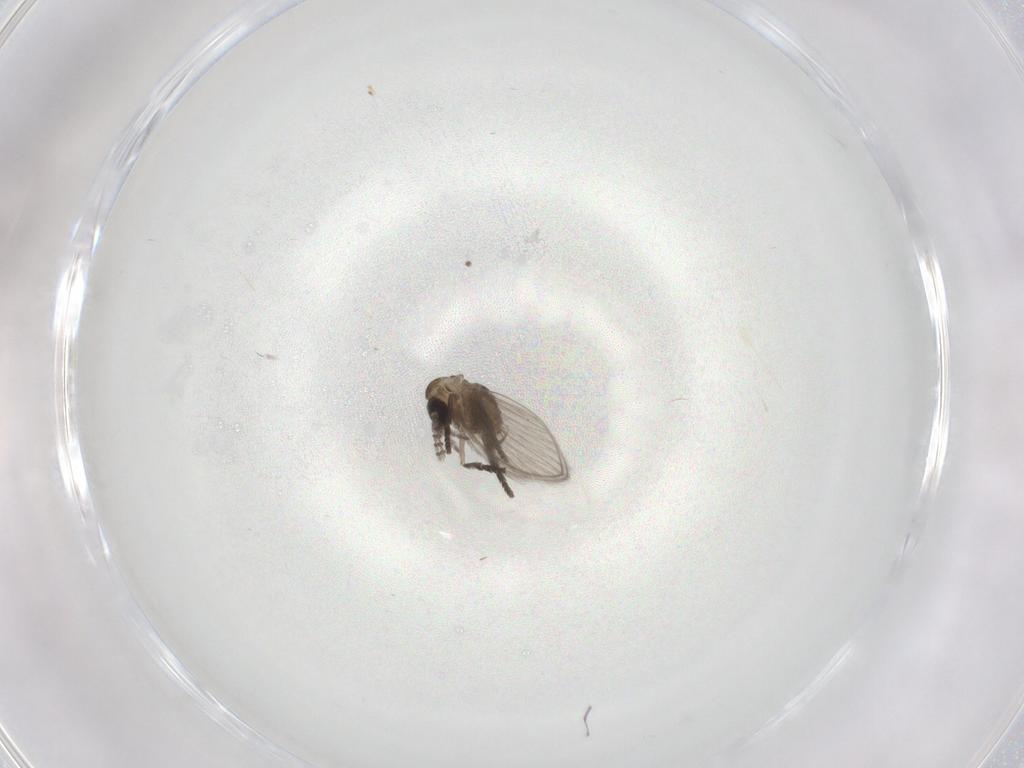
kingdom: Animalia
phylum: Arthropoda
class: Insecta
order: Diptera
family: Psychodidae
